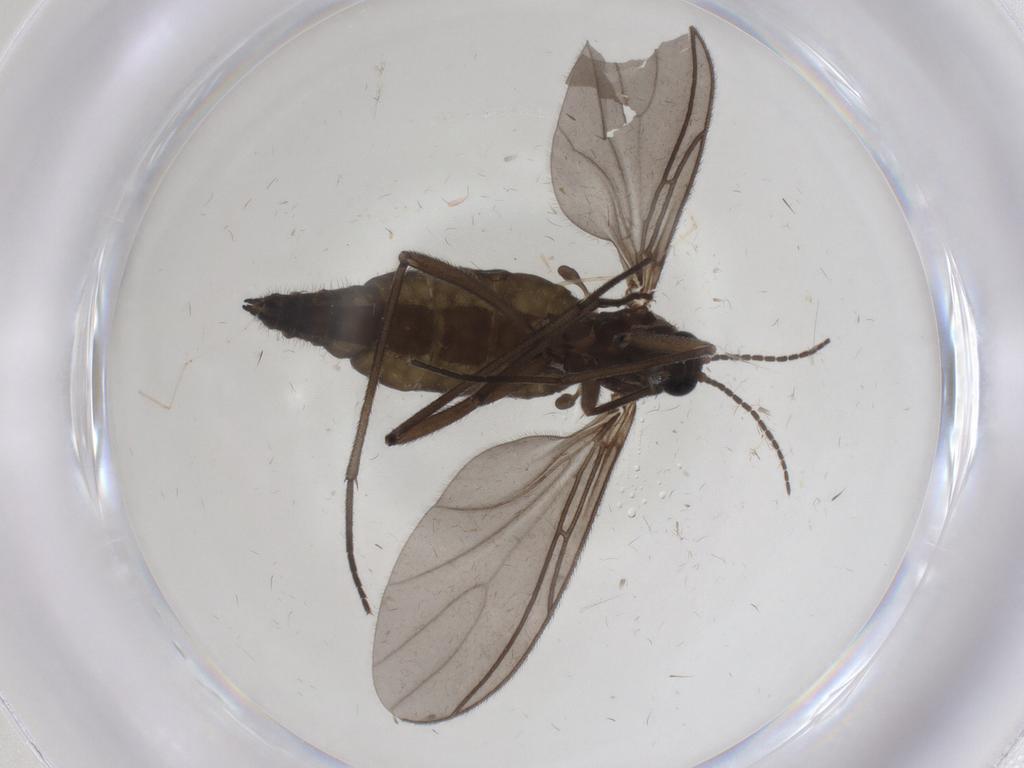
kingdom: Animalia
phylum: Arthropoda
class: Insecta
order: Diptera
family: Sciaridae
